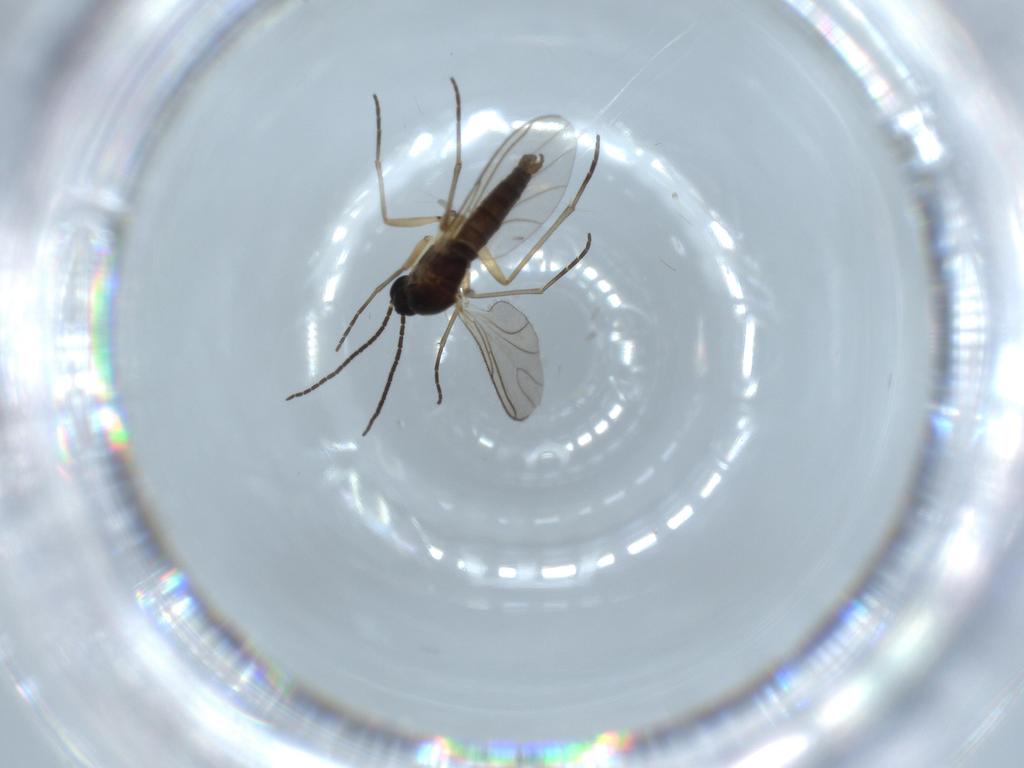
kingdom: Animalia
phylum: Arthropoda
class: Insecta
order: Diptera
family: Sciaridae
